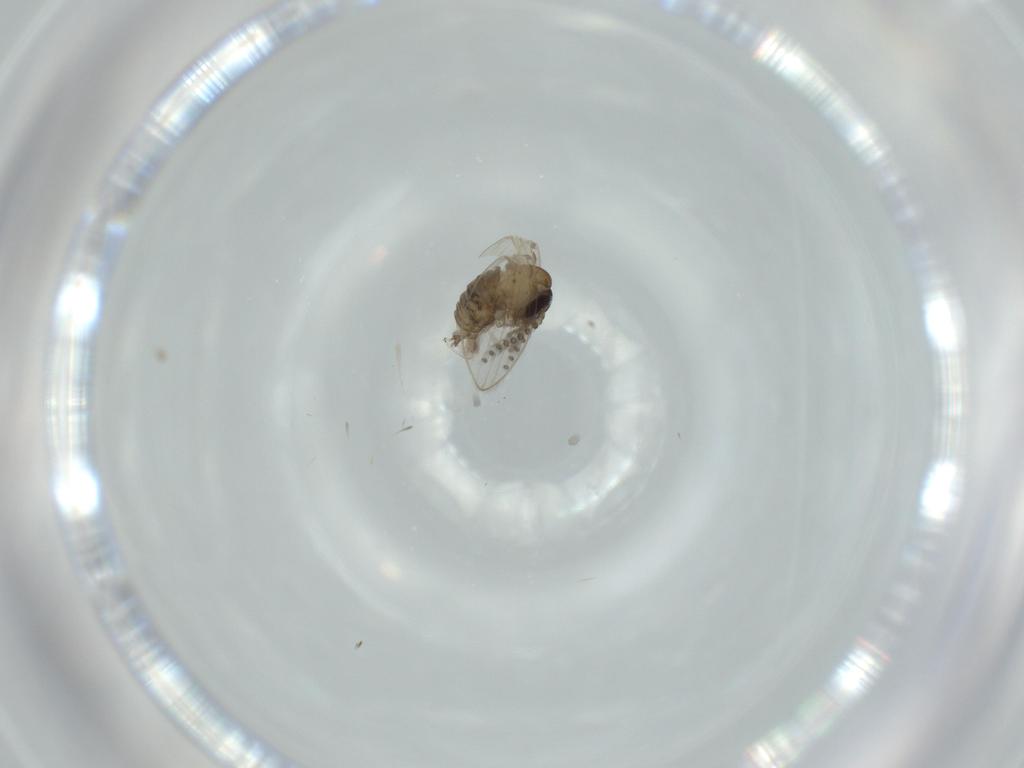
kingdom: Animalia
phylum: Arthropoda
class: Insecta
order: Diptera
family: Psychodidae
